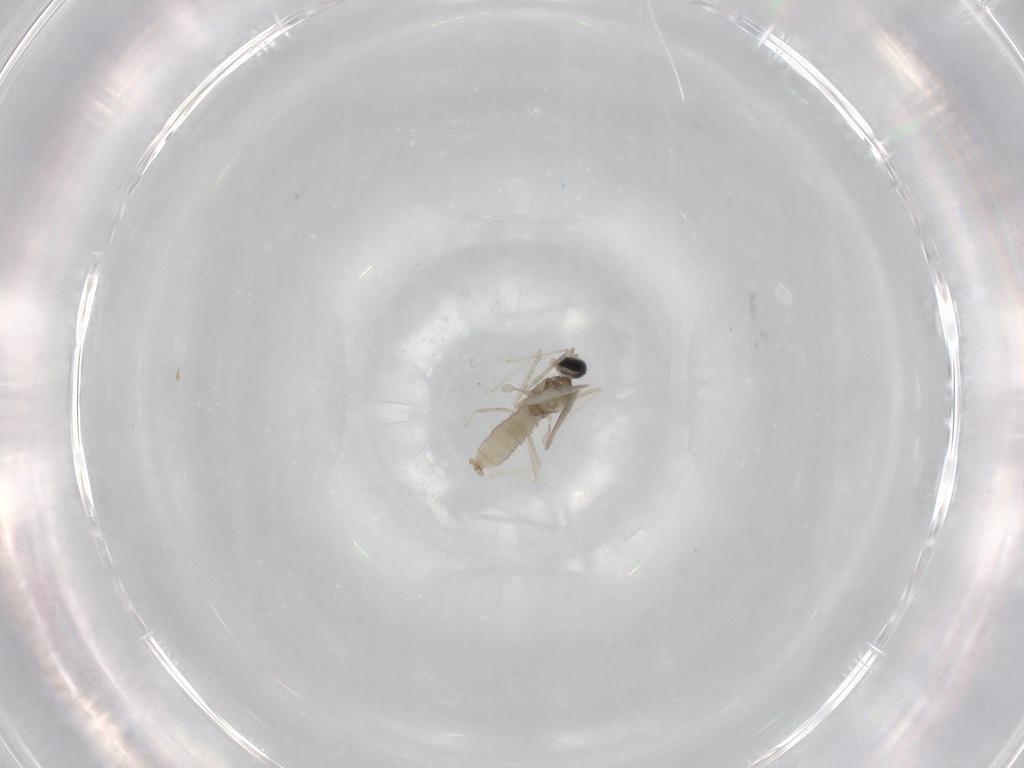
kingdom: Animalia
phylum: Arthropoda
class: Insecta
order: Diptera
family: Cecidomyiidae
